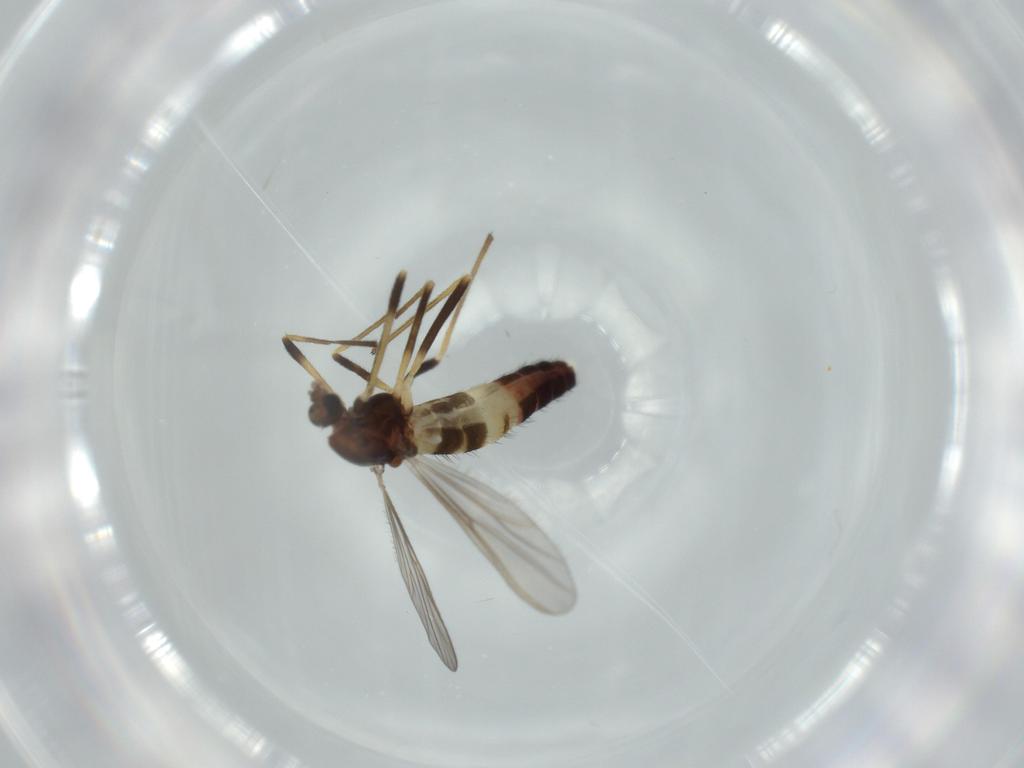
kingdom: Animalia
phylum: Arthropoda
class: Insecta
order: Diptera
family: Chironomidae
